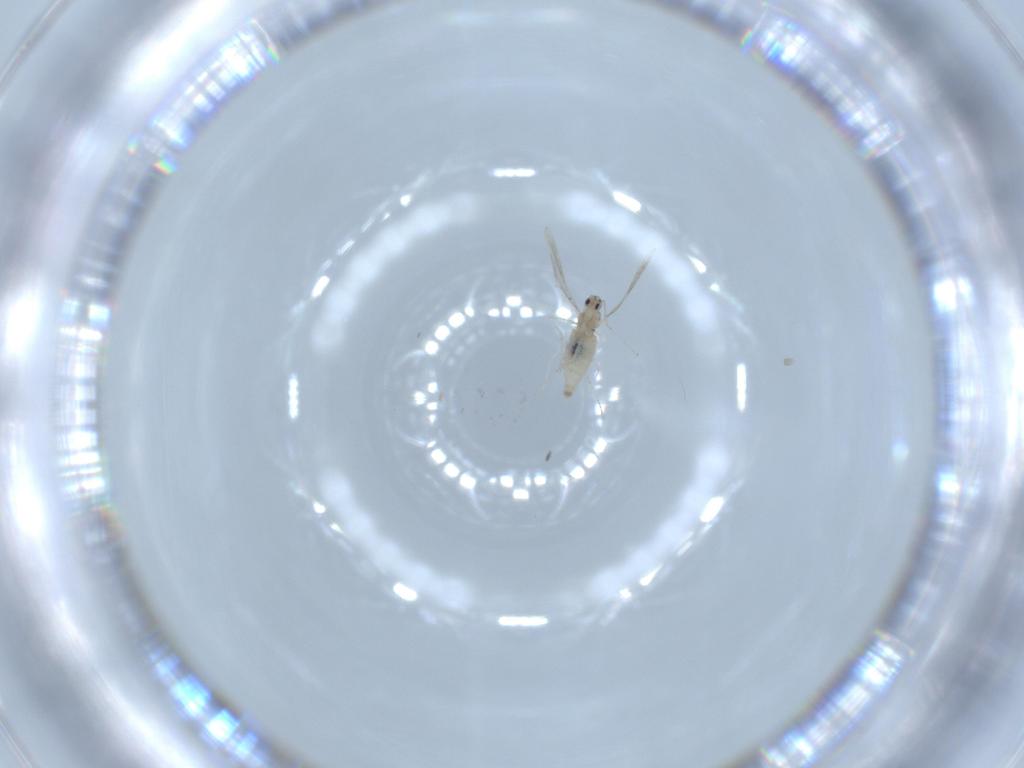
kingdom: Animalia
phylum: Arthropoda
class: Insecta
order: Diptera
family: Cecidomyiidae
